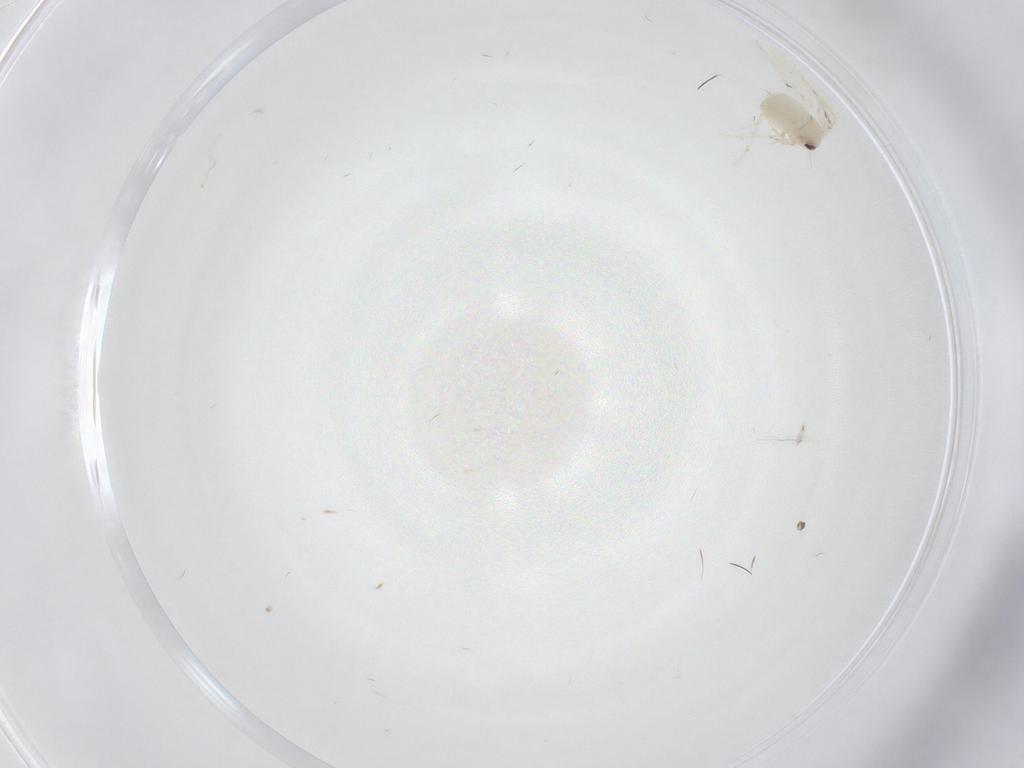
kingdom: Animalia
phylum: Arthropoda
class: Insecta
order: Diptera
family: Cecidomyiidae
